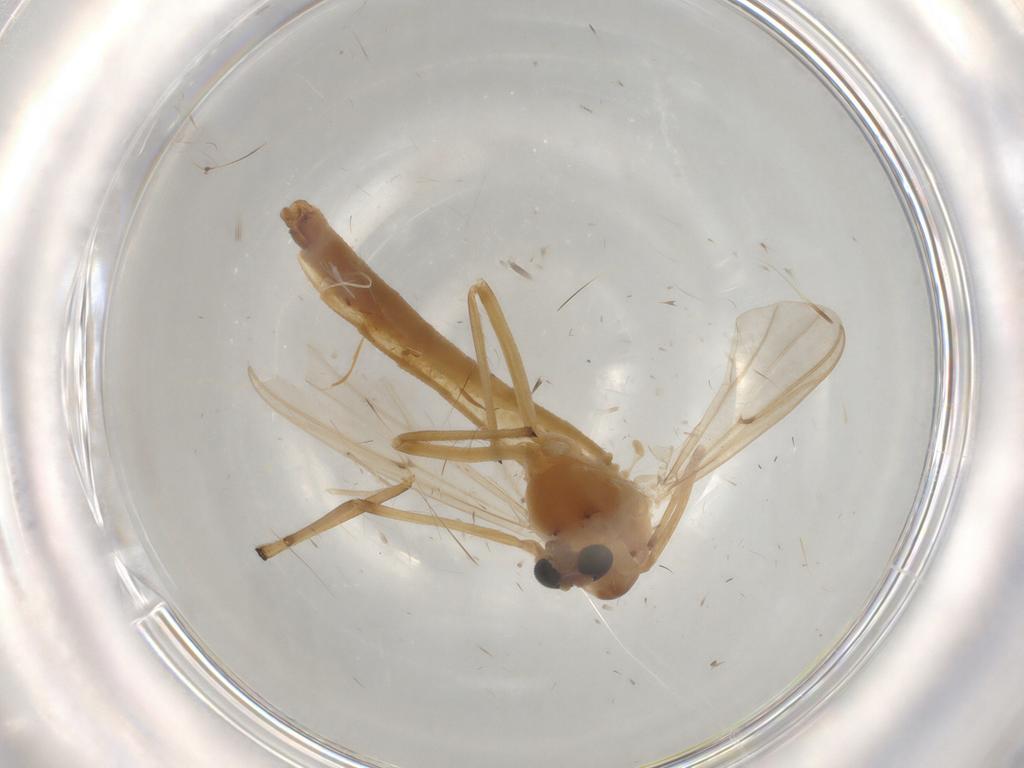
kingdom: Animalia
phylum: Arthropoda
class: Insecta
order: Diptera
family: Chironomidae
